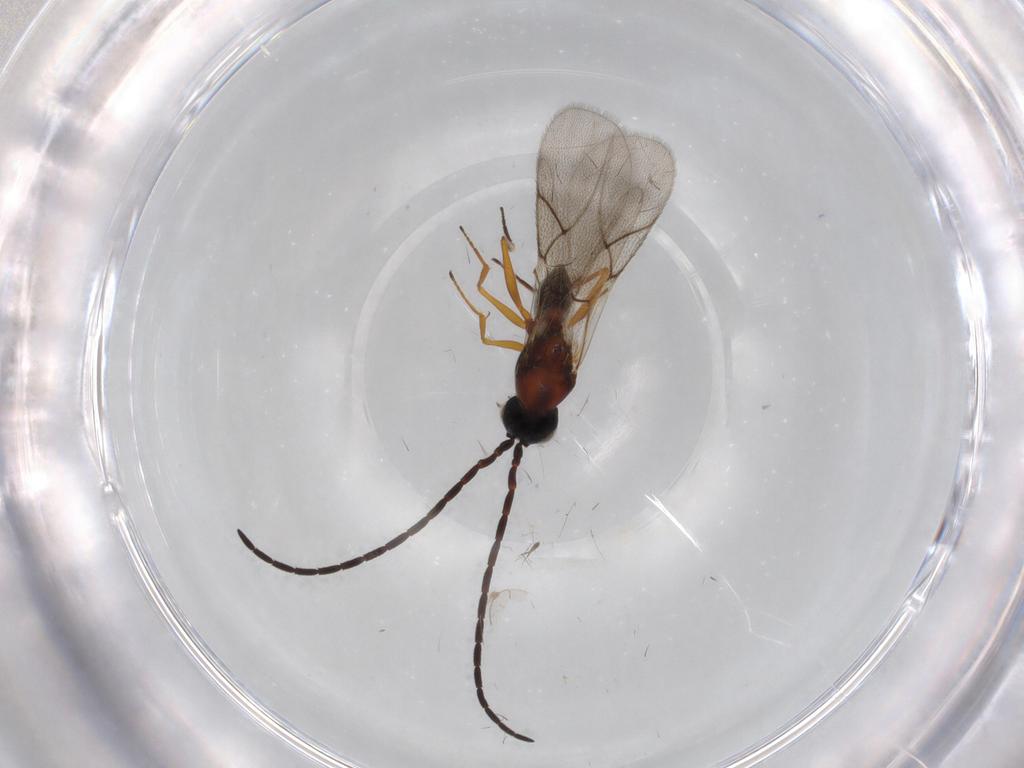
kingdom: Animalia
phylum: Arthropoda
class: Insecta
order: Hymenoptera
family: Figitidae
